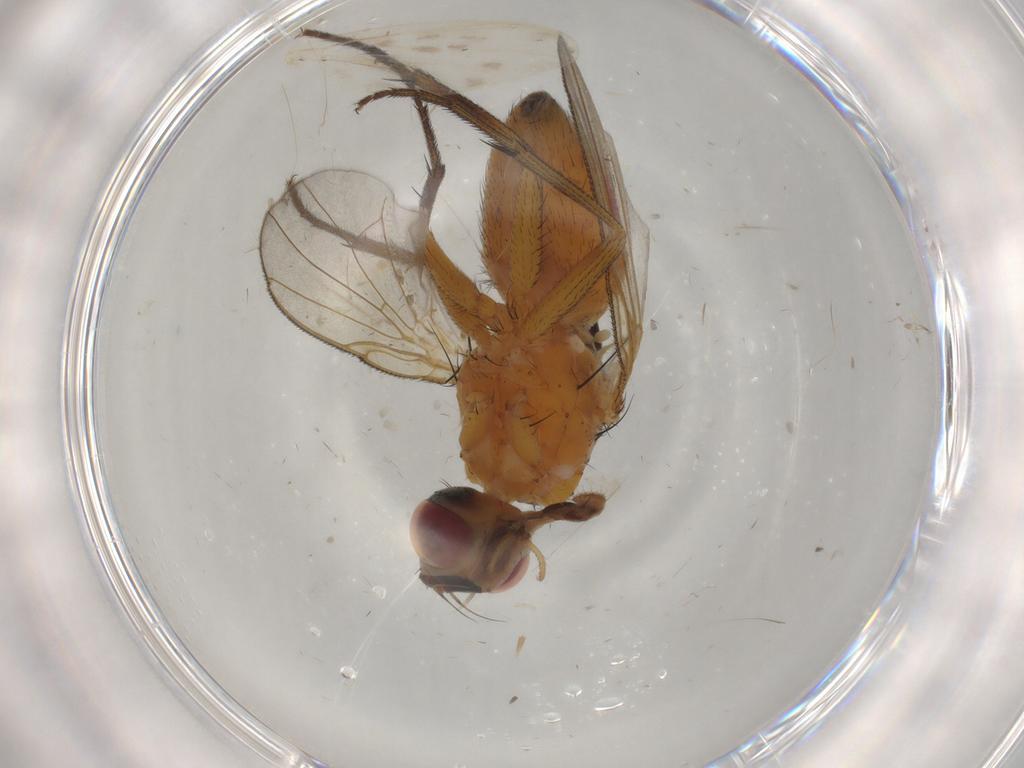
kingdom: Animalia
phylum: Arthropoda
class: Insecta
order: Diptera
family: Muscidae
